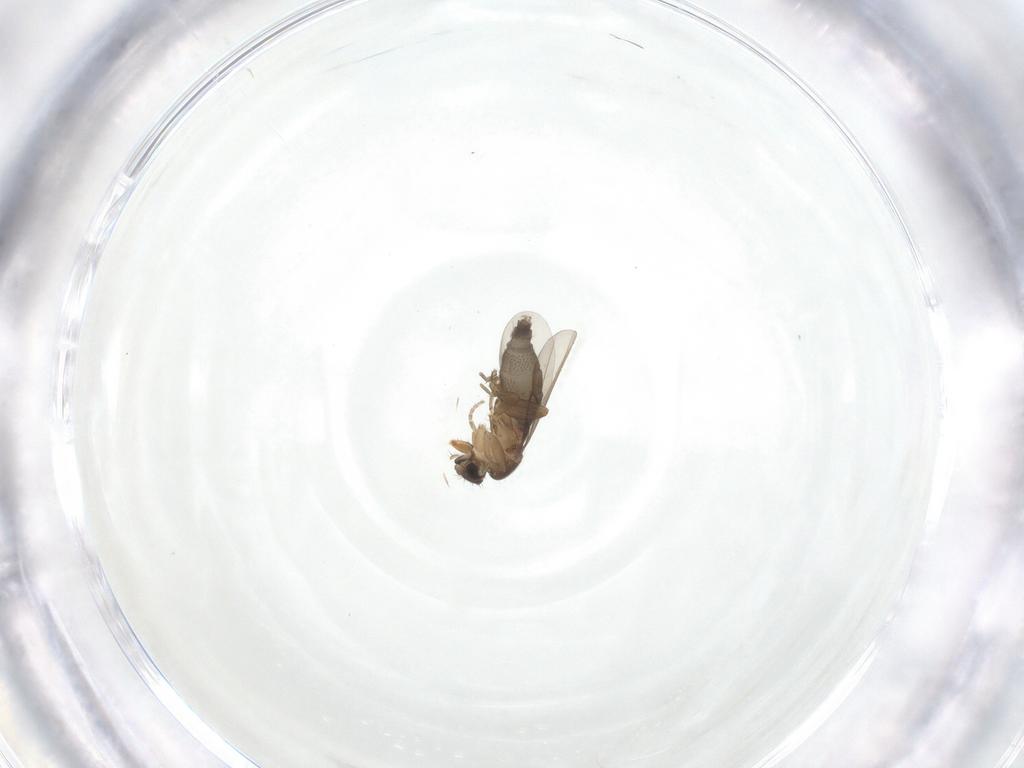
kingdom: Animalia
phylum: Arthropoda
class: Insecta
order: Diptera
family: Phoridae
